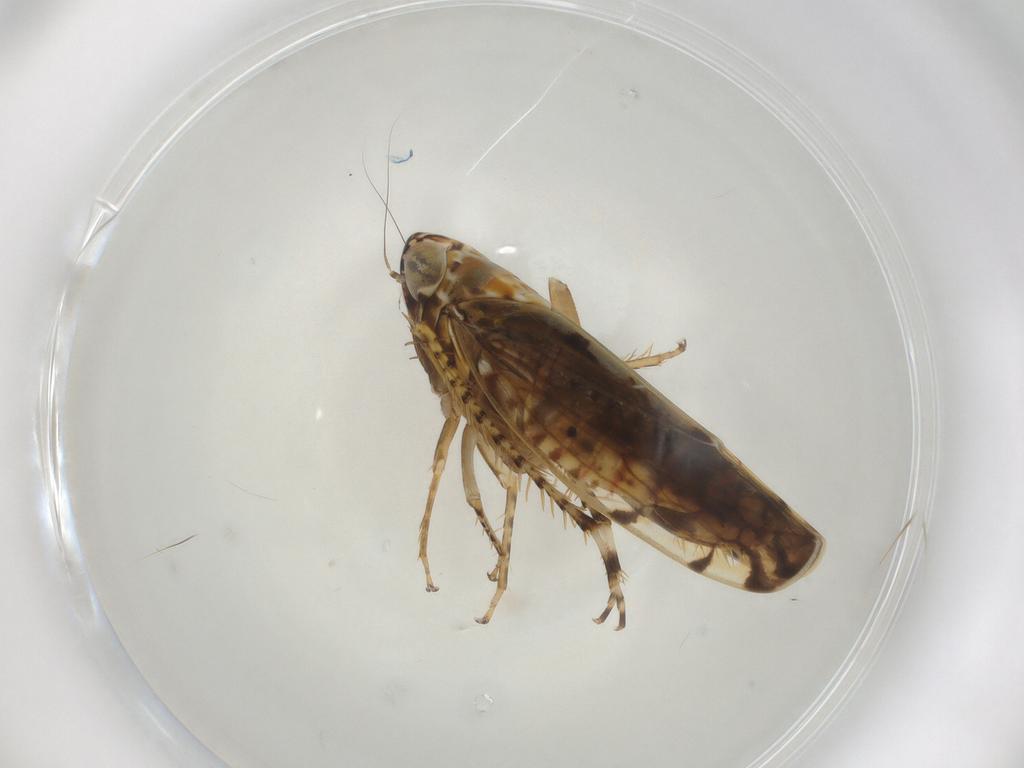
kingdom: Animalia
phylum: Arthropoda
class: Insecta
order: Hemiptera
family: Cicadellidae
